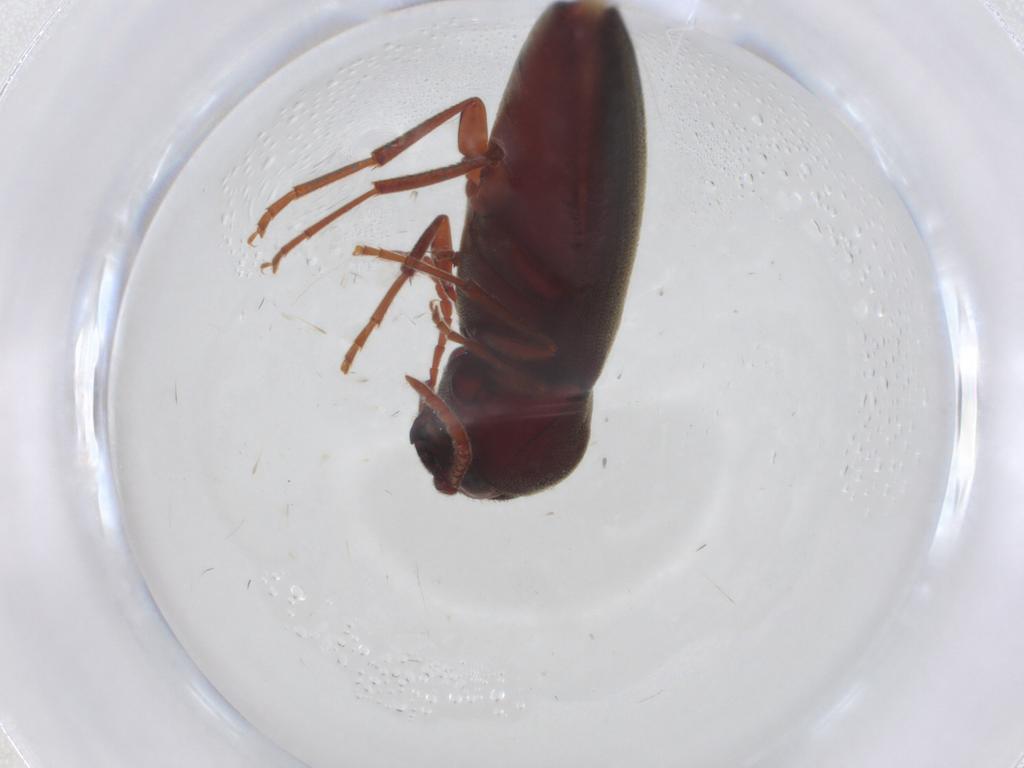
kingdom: Animalia
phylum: Arthropoda
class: Insecta
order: Coleoptera
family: Eucnemidae
